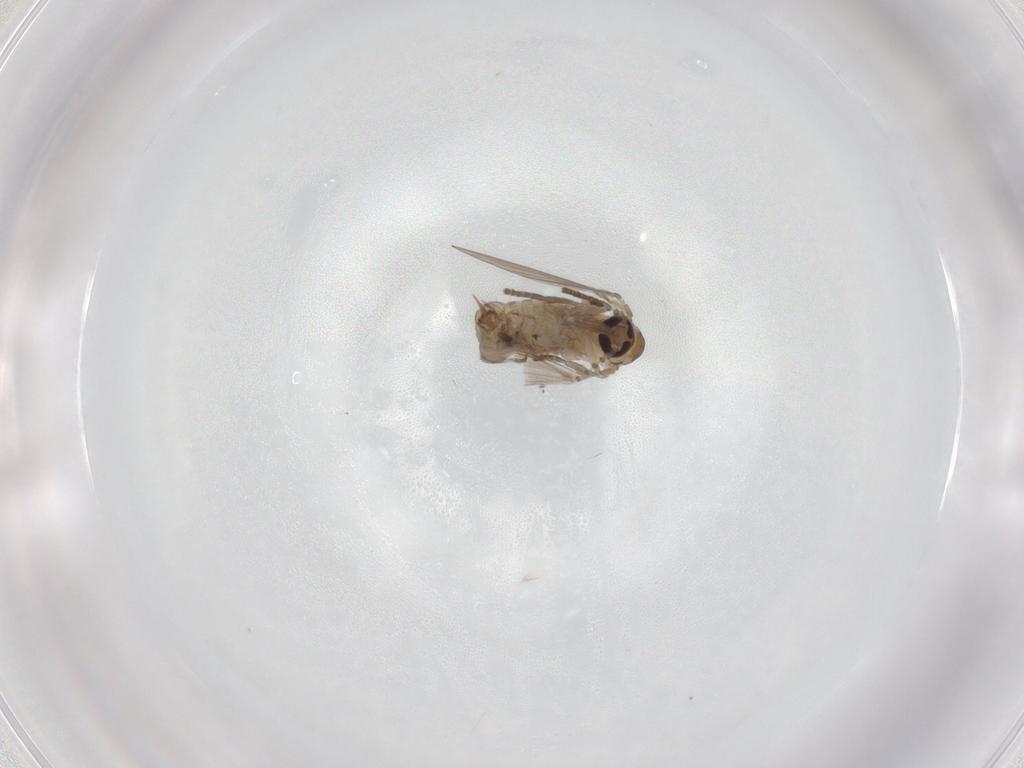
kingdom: Animalia
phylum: Arthropoda
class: Insecta
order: Diptera
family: Psychodidae
